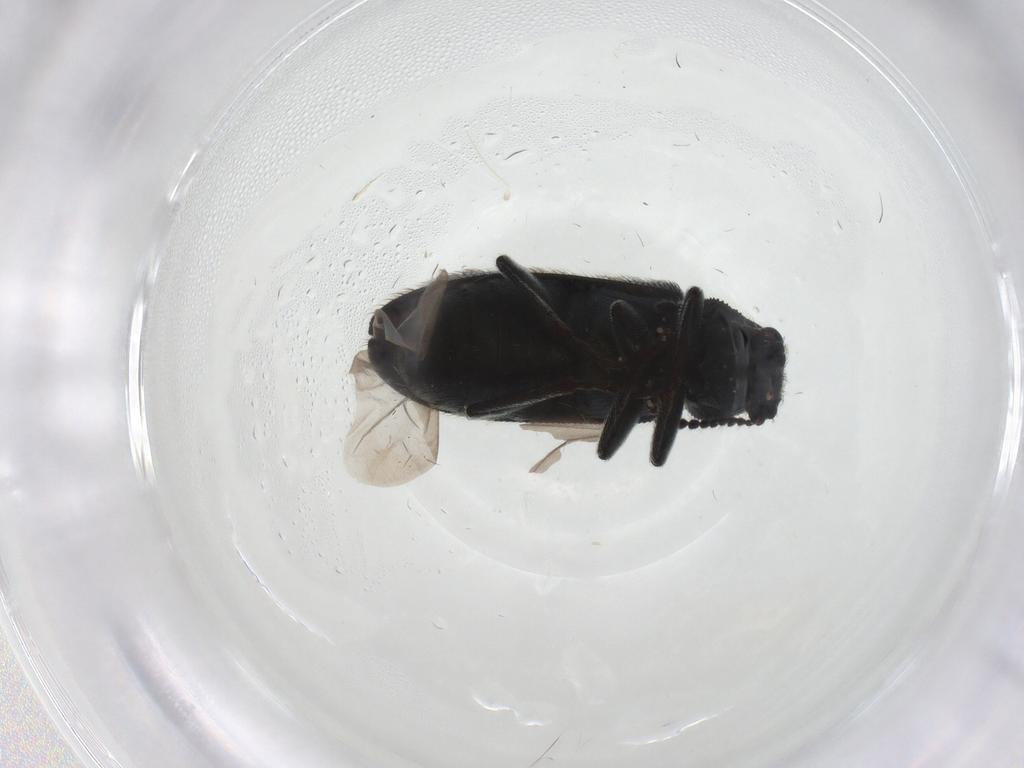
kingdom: Animalia
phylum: Arthropoda
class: Insecta
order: Coleoptera
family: Melyridae
